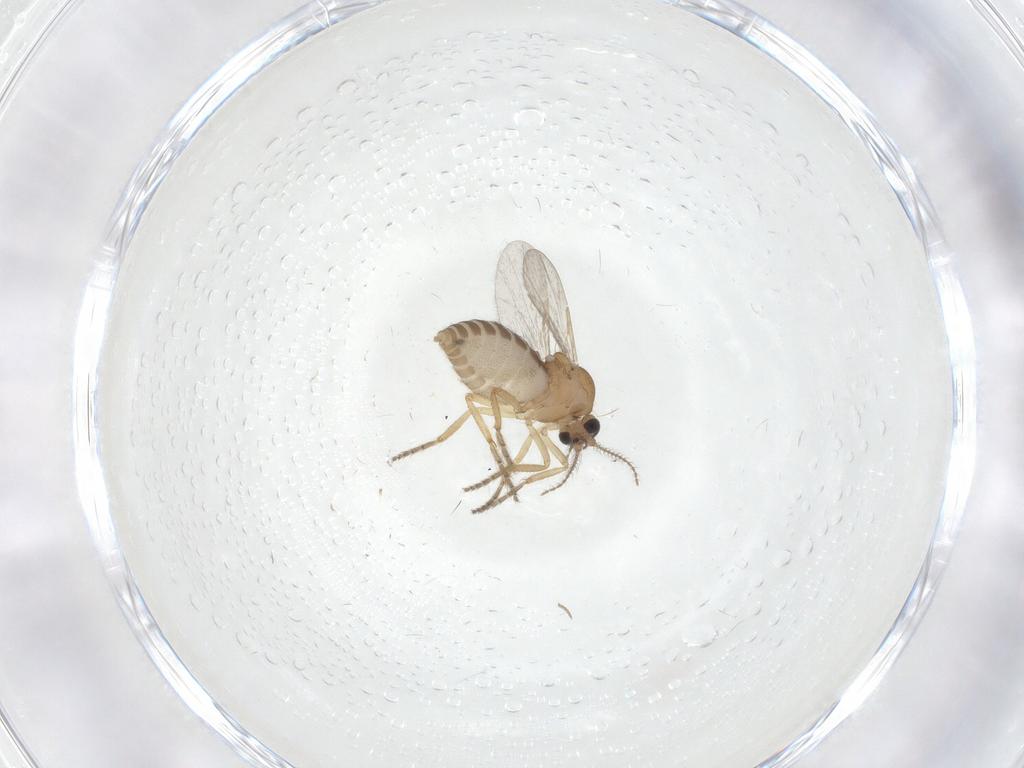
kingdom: Animalia
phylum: Arthropoda
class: Insecta
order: Diptera
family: Ceratopogonidae
